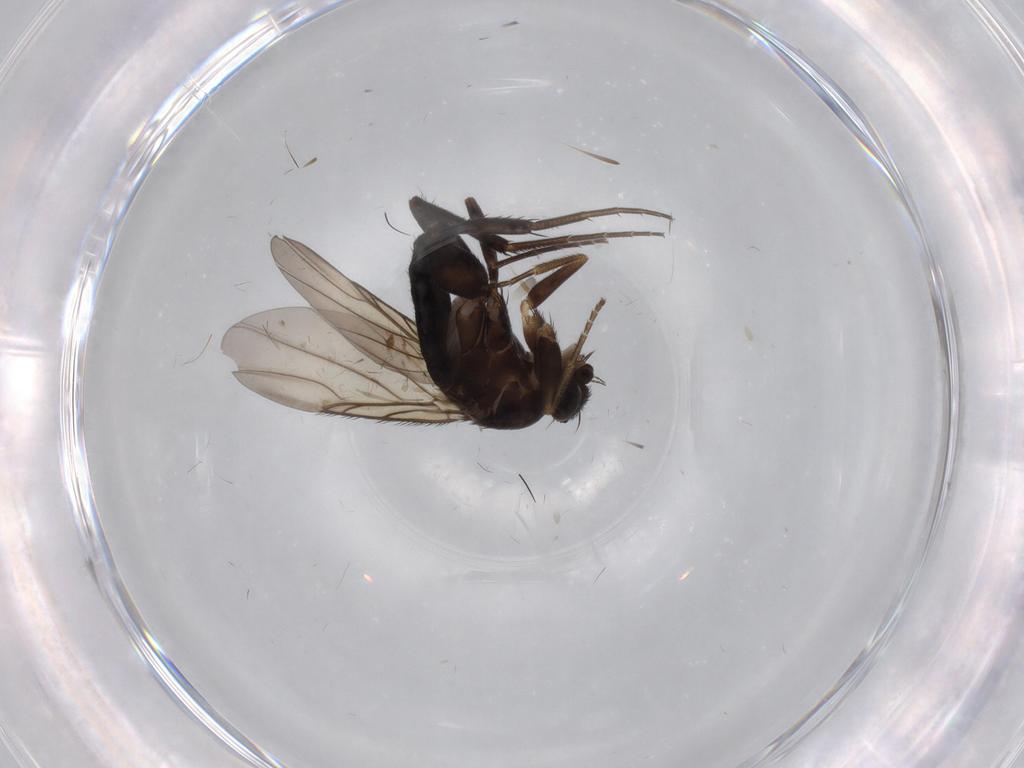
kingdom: Animalia
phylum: Arthropoda
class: Insecta
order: Diptera
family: Phoridae
